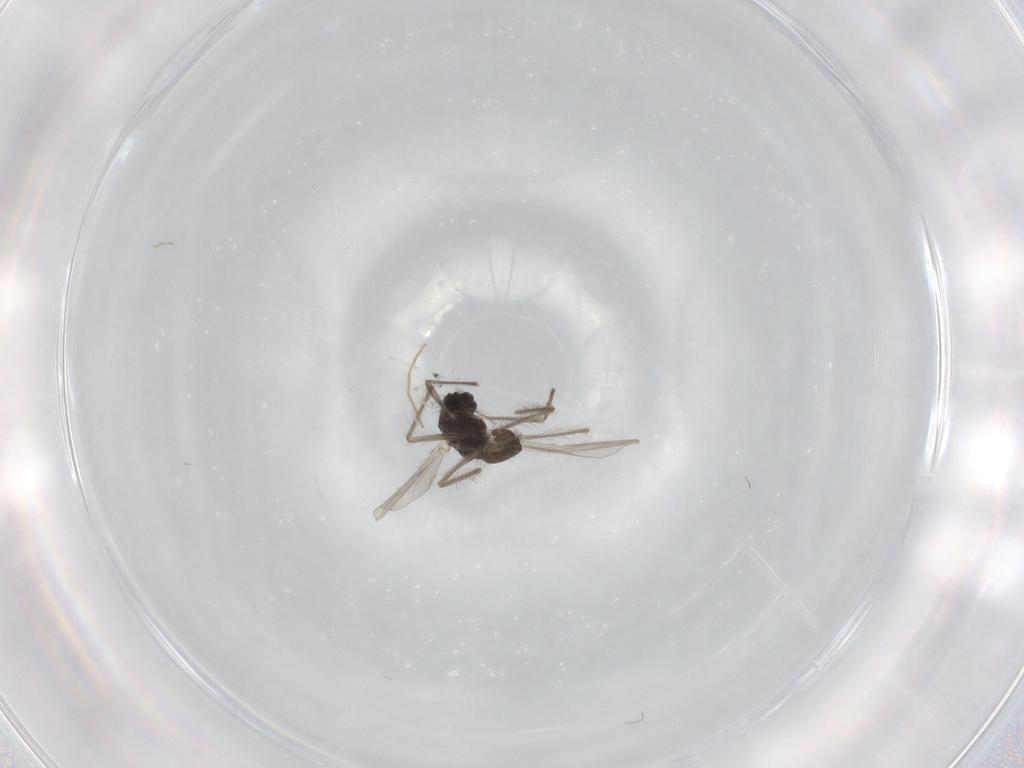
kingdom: Animalia
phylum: Arthropoda
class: Insecta
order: Diptera
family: Chironomidae
